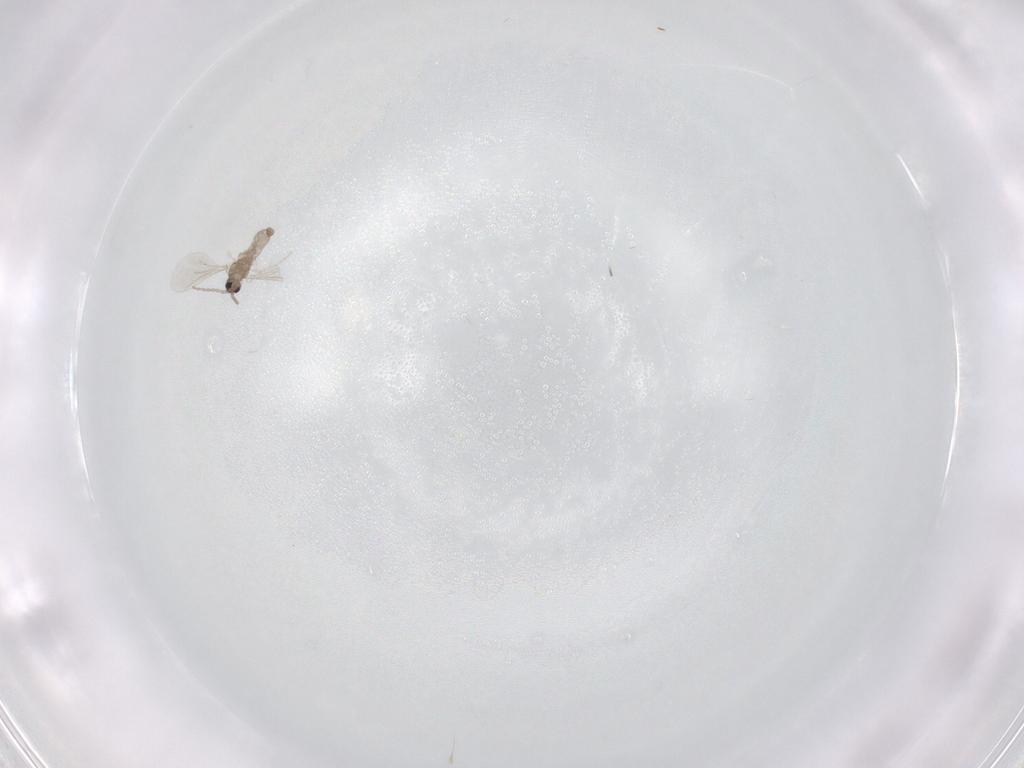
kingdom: Animalia
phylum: Arthropoda
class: Insecta
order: Diptera
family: Cecidomyiidae
